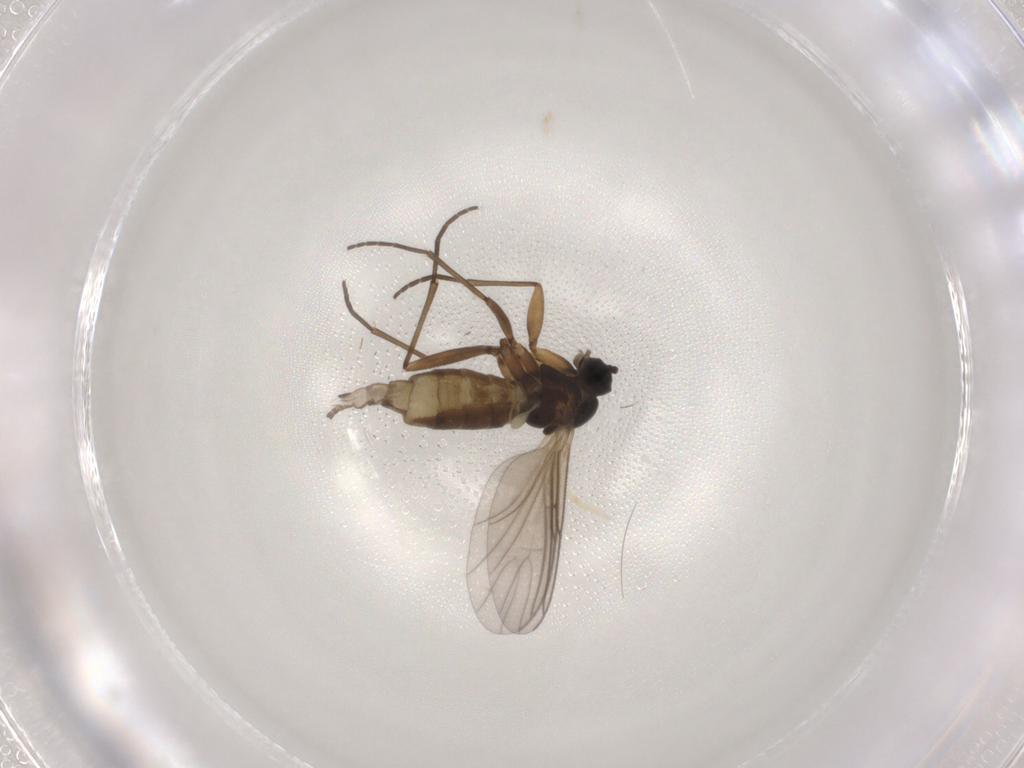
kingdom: Animalia
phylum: Arthropoda
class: Insecta
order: Diptera
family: Sciaridae
